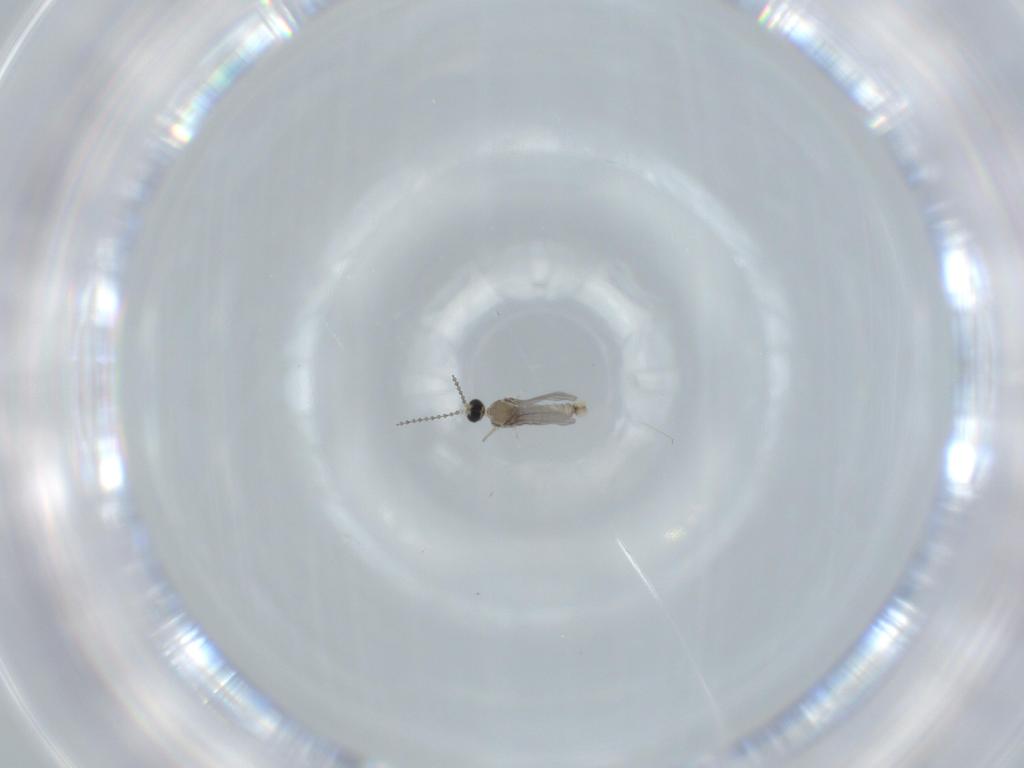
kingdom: Animalia
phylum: Arthropoda
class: Insecta
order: Diptera
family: Cecidomyiidae
